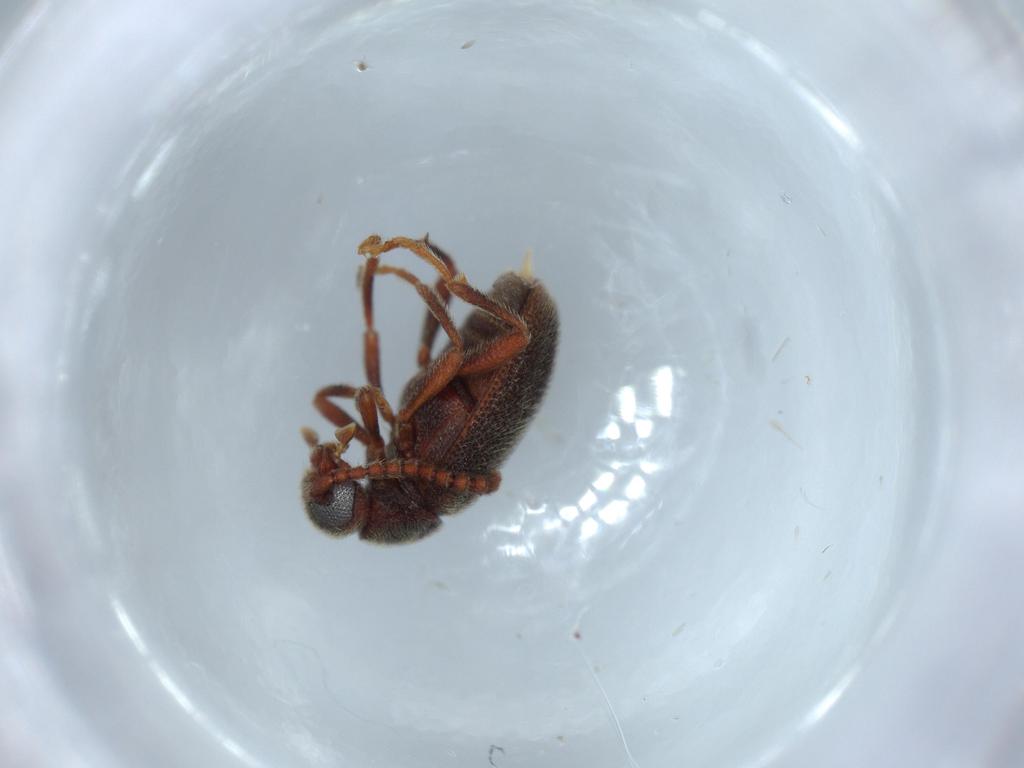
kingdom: Animalia
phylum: Arthropoda
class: Insecta
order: Coleoptera
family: Chrysomelidae
